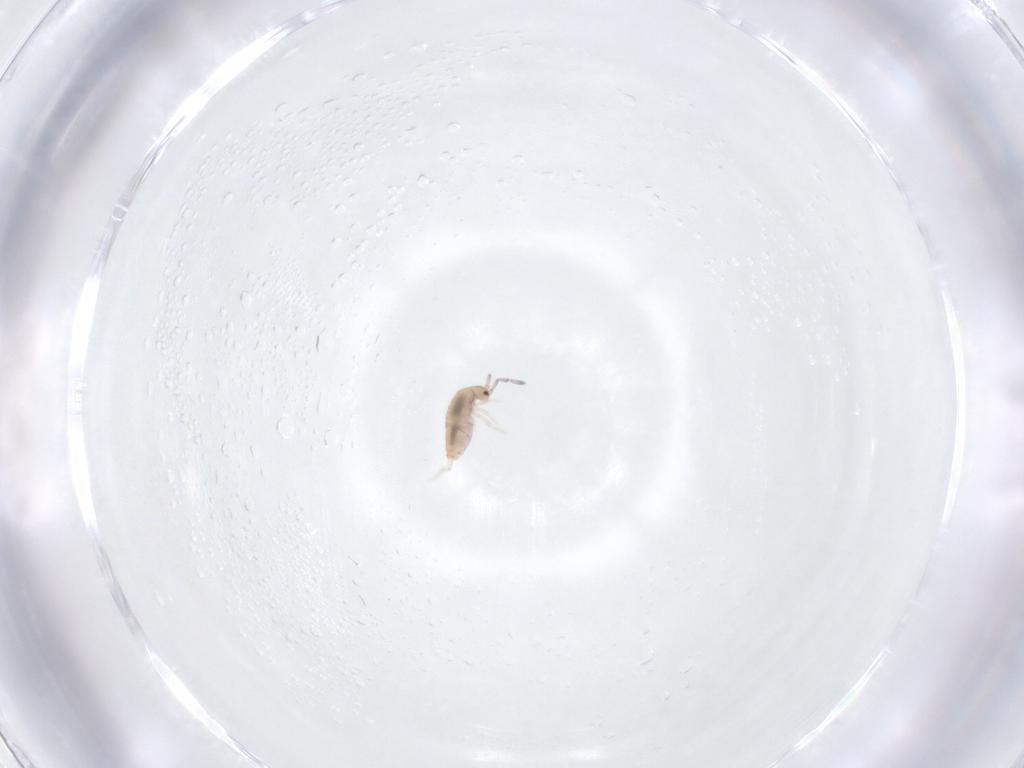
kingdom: Animalia
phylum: Arthropoda
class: Collembola
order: Entomobryomorpha
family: Entomobryidae
